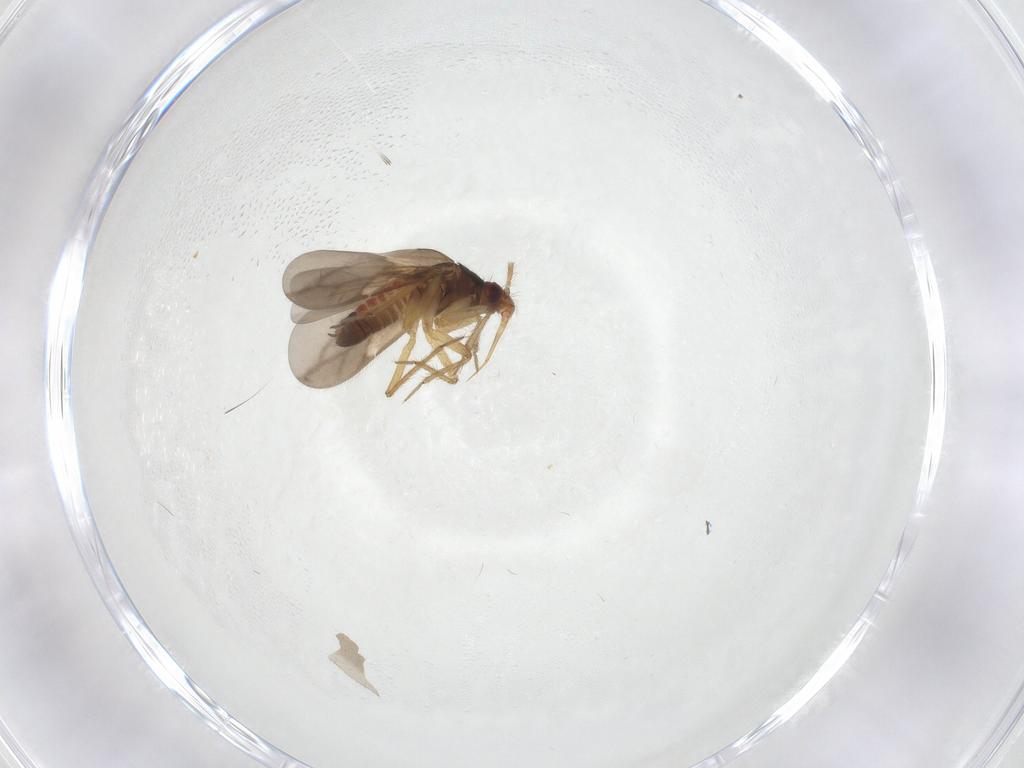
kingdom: Animalia
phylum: Arthropoda
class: Insecta
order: Hemiptera
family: Ceratocombidae
